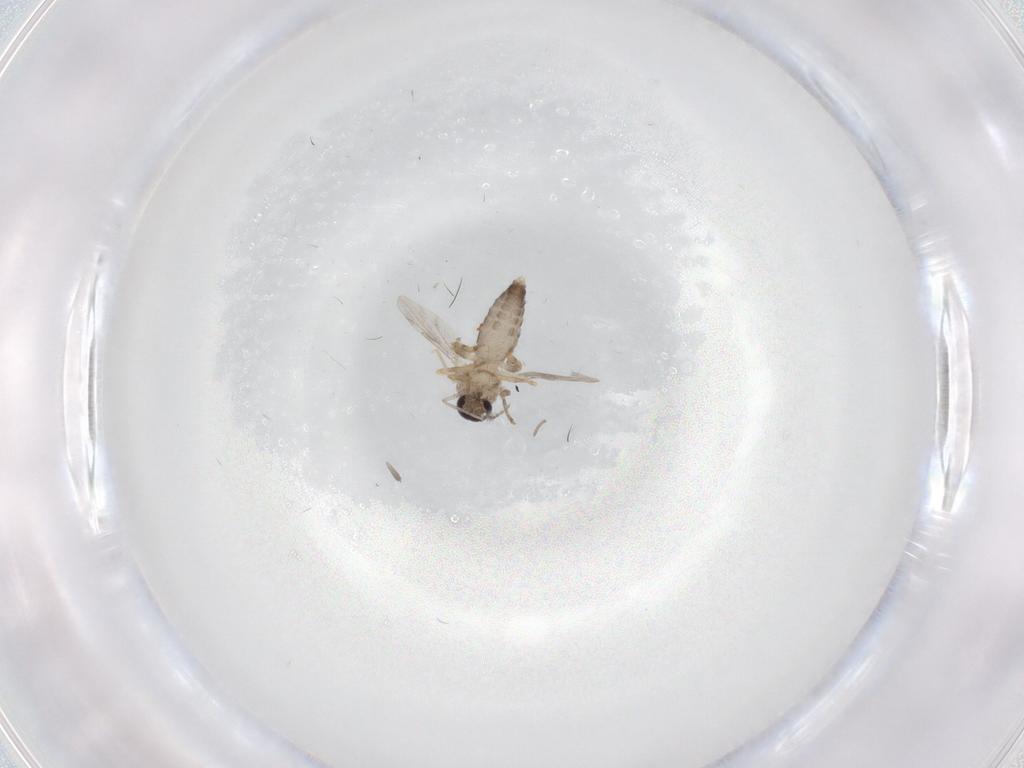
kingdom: Animalia
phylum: Arthropoda
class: Insecta
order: Diptera
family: Ceratopogonidae
